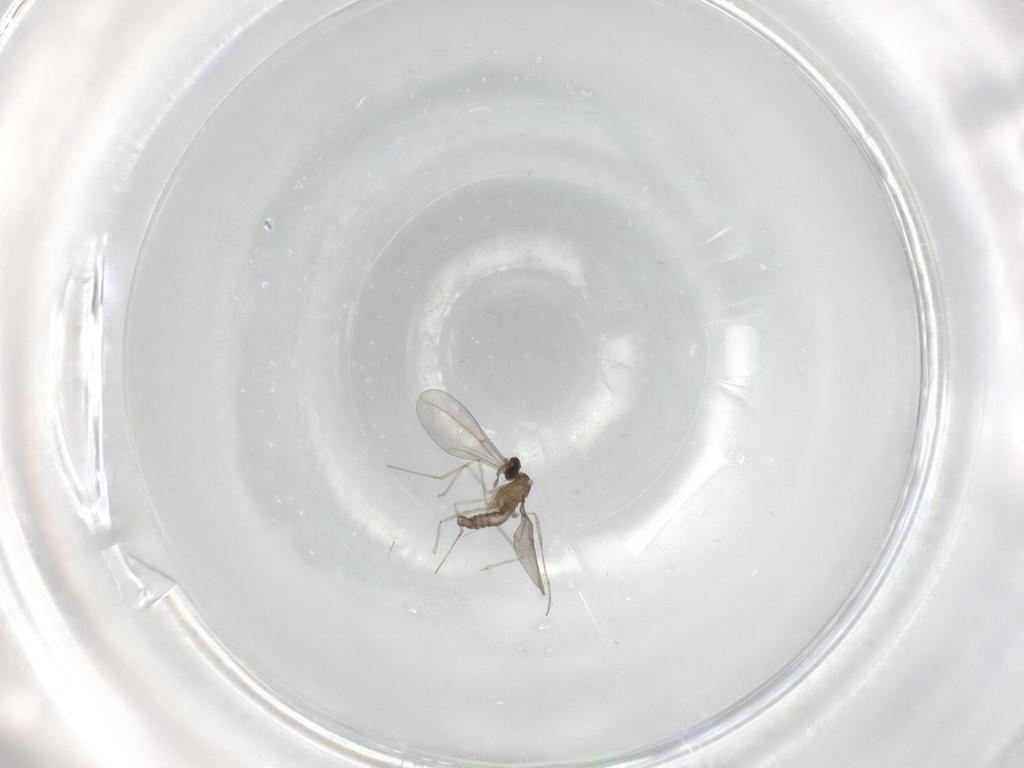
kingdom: Animalia
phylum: Arthropoda
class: Insecta
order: Diptera
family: Cecidomyiidae
